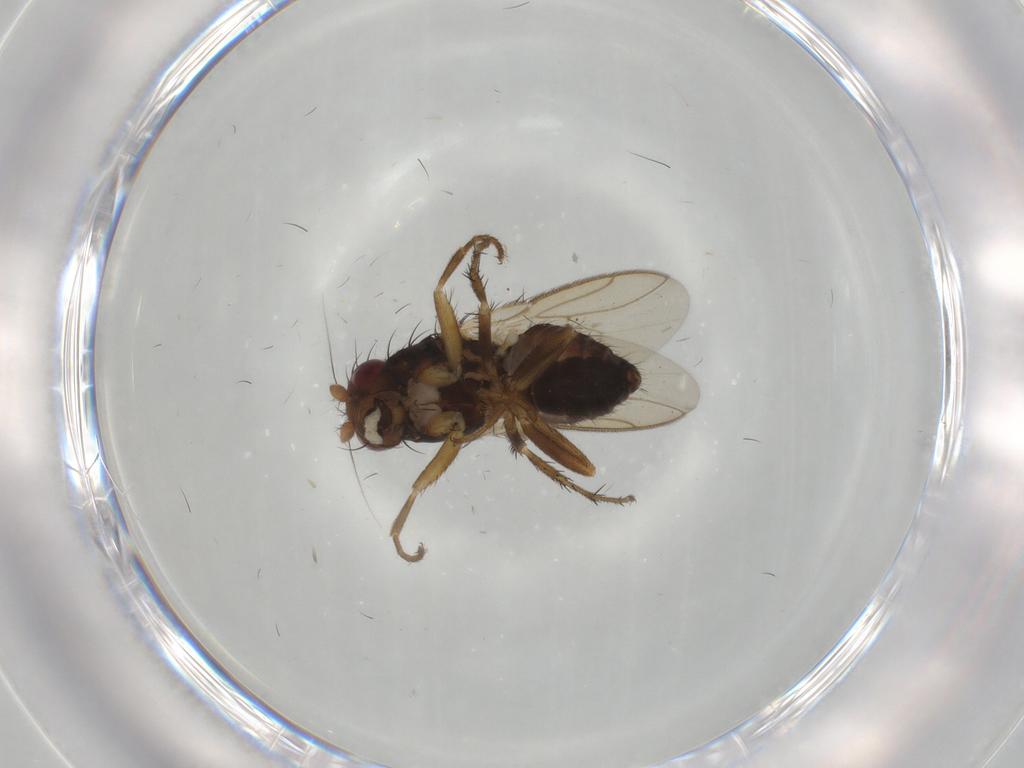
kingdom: Animalia
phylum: Arthropoda
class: Insecta
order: Diptera
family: Sphaeroceridae
